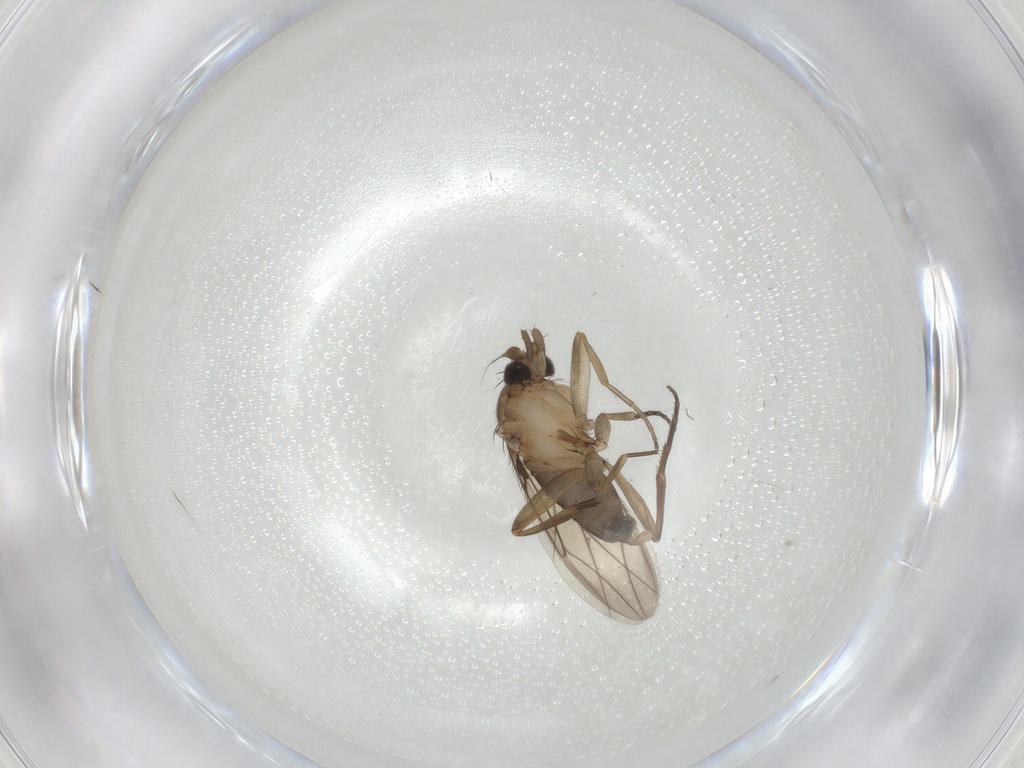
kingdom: Animalia
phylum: Arthropoda
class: Insecta
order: Diptera
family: Phoridae
